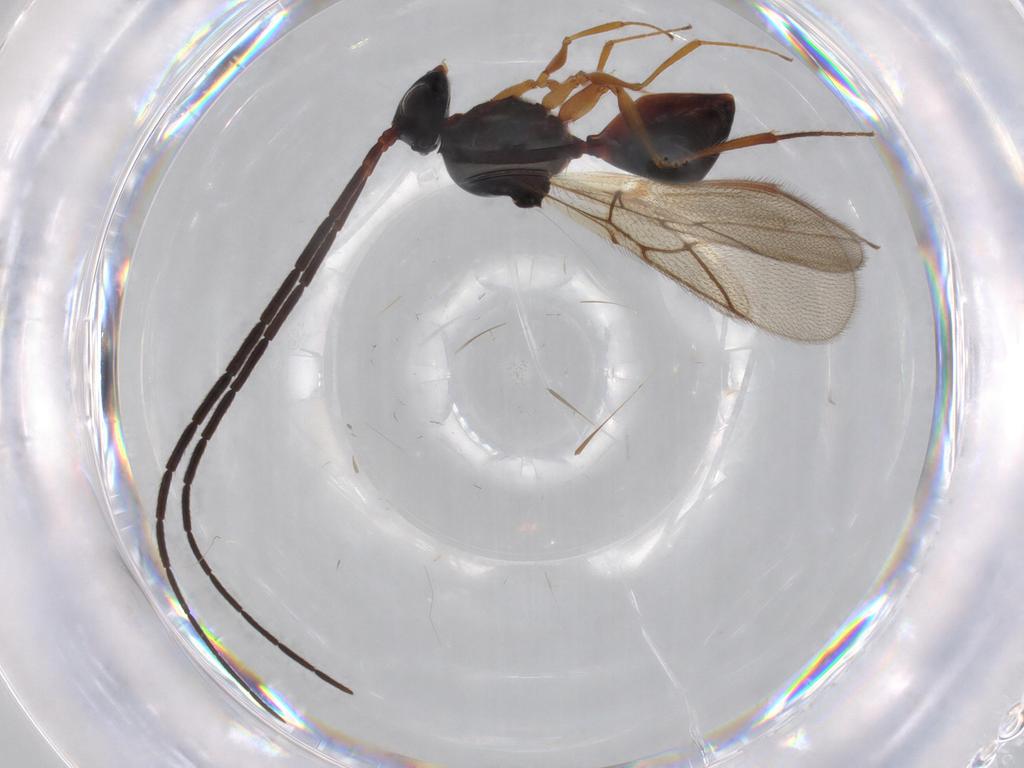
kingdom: Animalia
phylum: Arthropoda
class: Insecta
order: Hymenoptera
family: Figitidae
